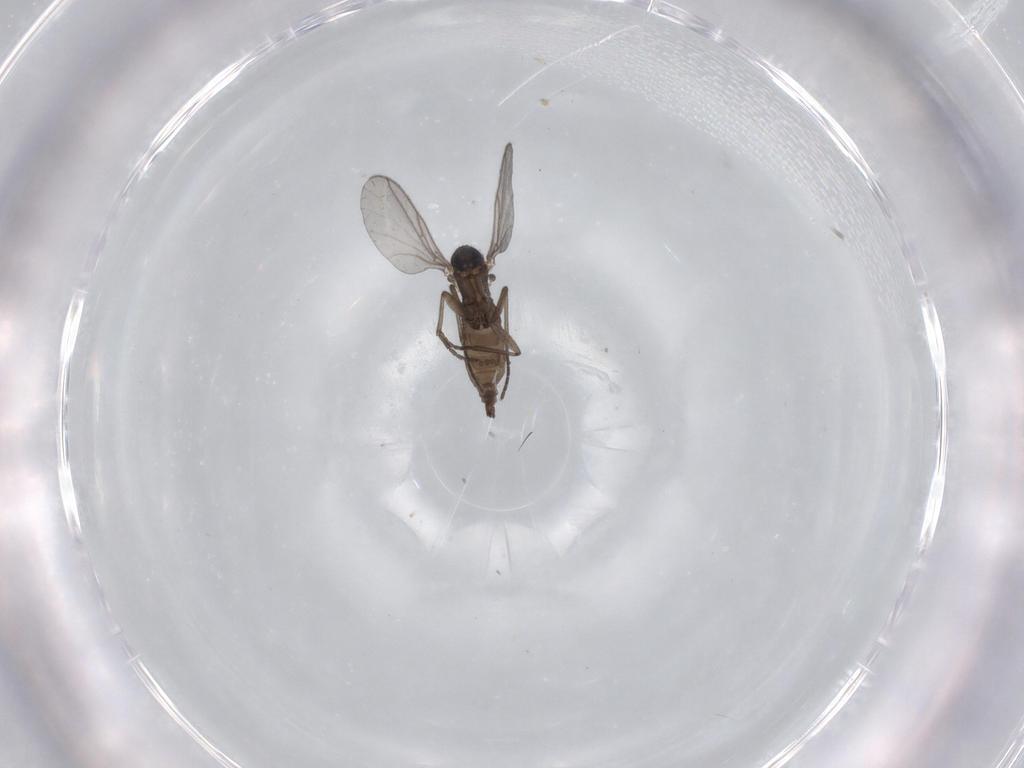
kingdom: Animalia
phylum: Arthropoda
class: Insecta
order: Diptera
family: Psychodidae
